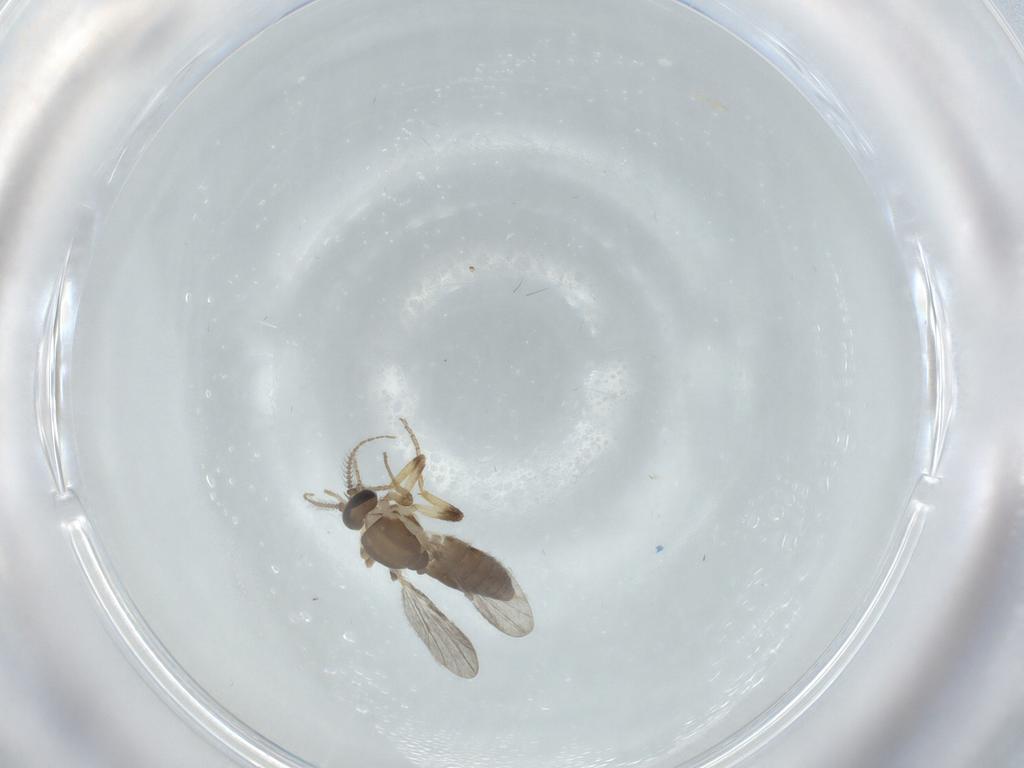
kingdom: Animalia
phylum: Arthropoda
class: Insecta
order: Diptera
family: Ceratopogonidae
